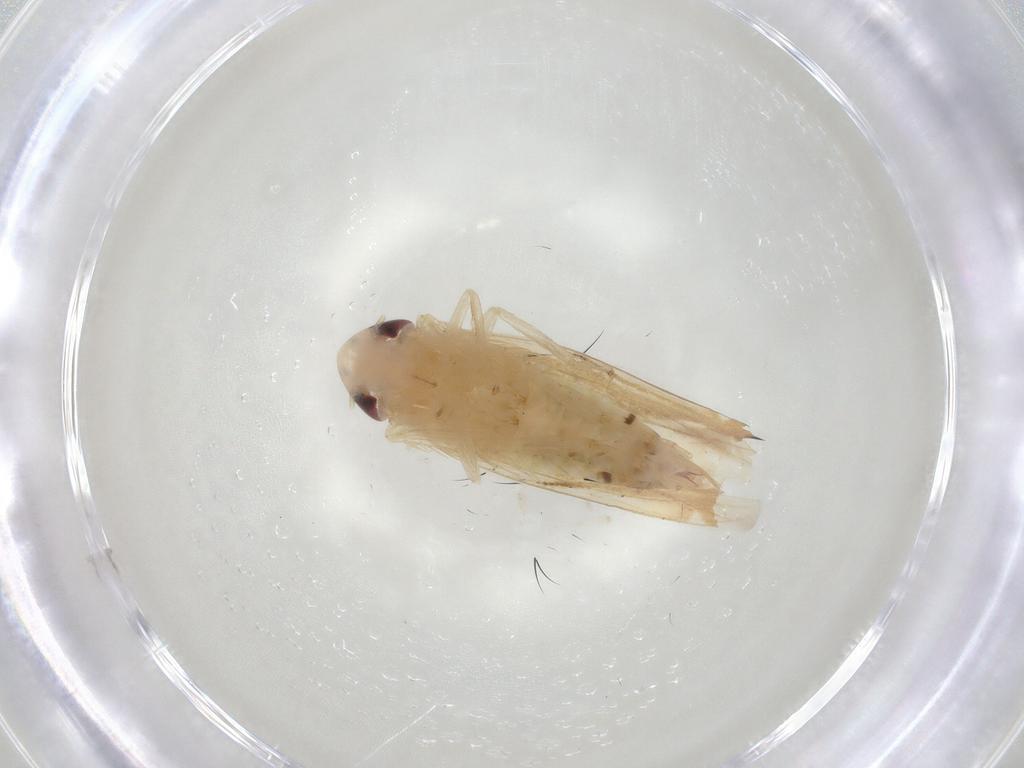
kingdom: Animalia
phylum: Arthropoda
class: Insecta
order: Hemiptera
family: Cicadellidae
